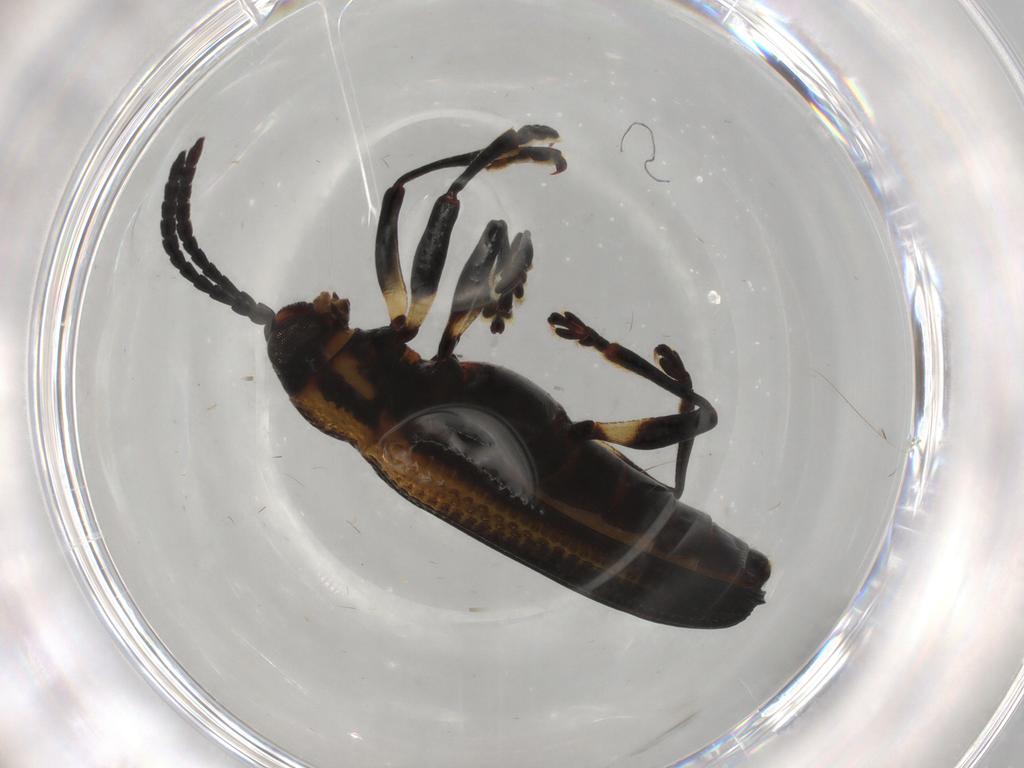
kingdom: Animalia
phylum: Arthropoda
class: Insecta
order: Coleoptera
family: Chrysomelidae
